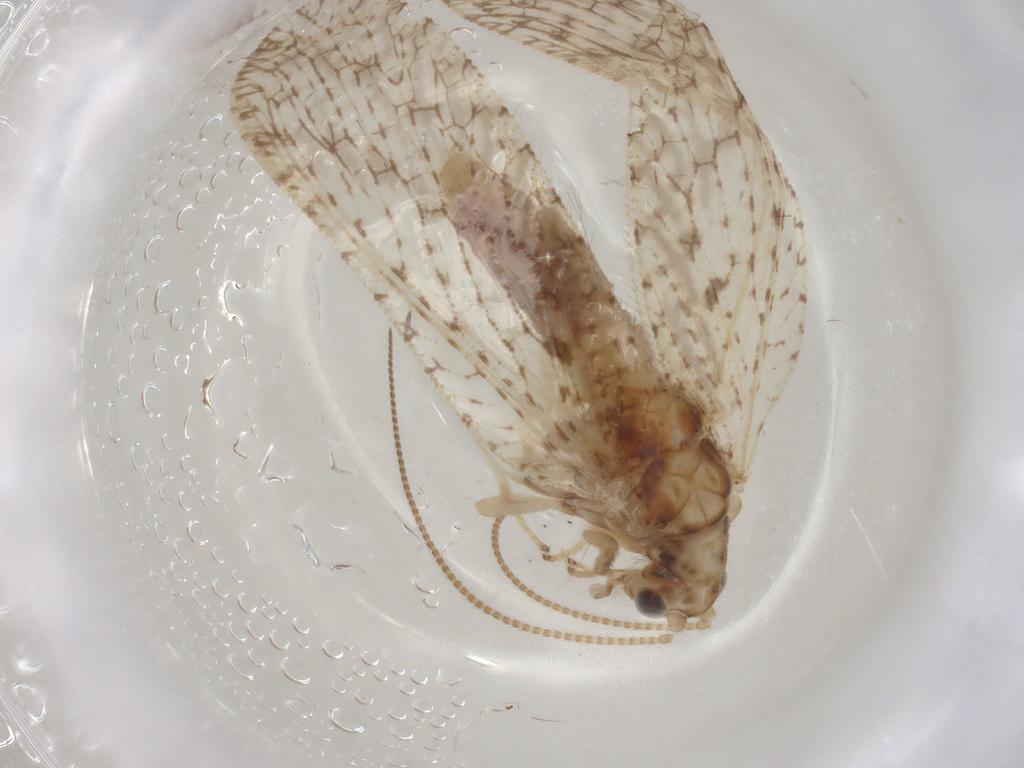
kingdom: Animalia
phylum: Arthropoda
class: Insecta
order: Neuroptera
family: Hemerobiidae
